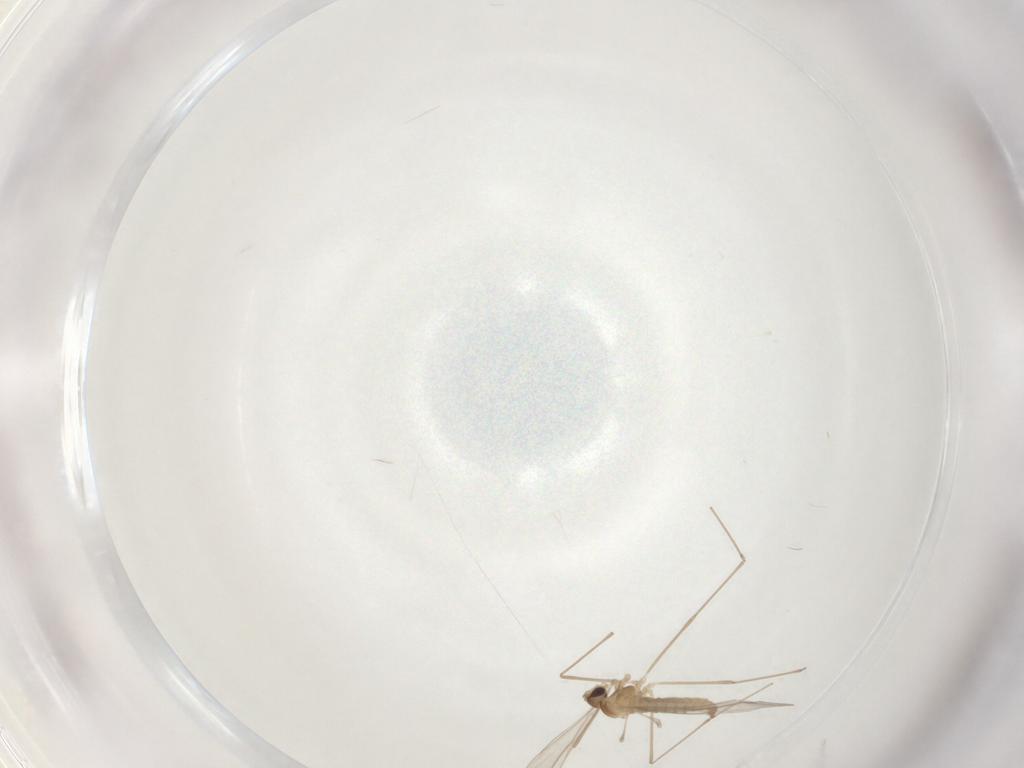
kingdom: Animalia
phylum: Arthropoda
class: Insecta
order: Diptera
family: Cecidomyiidae
